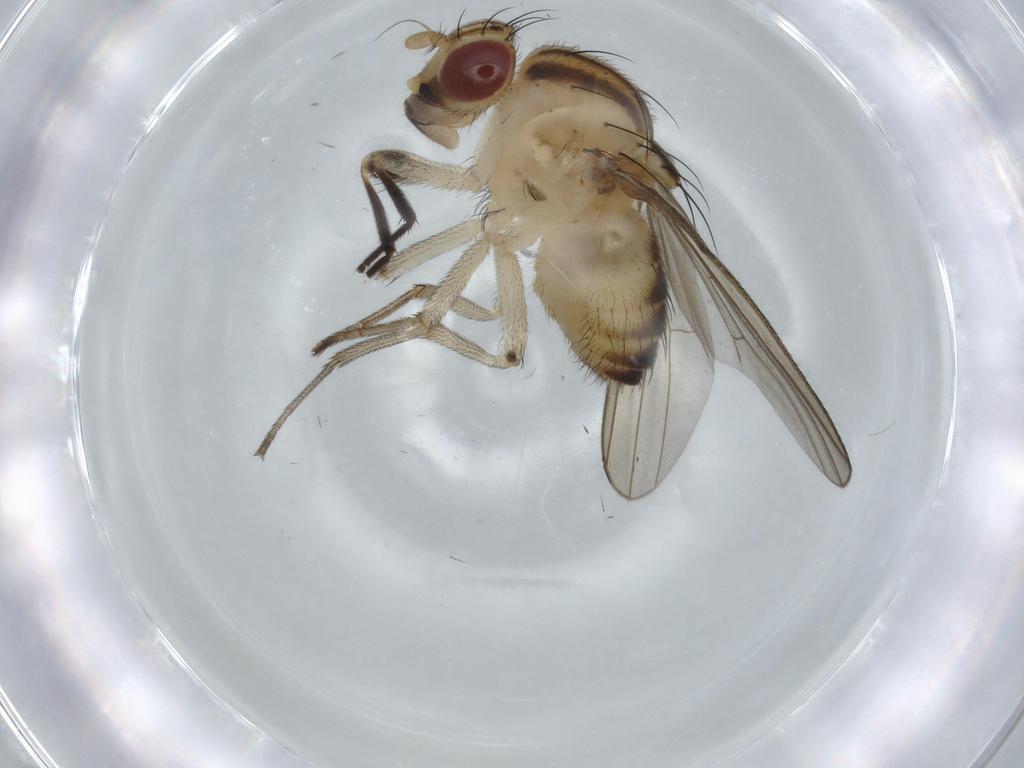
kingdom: Animalia
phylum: Arthropoda
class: Insecta
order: Diptera
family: Lauxaniidae
